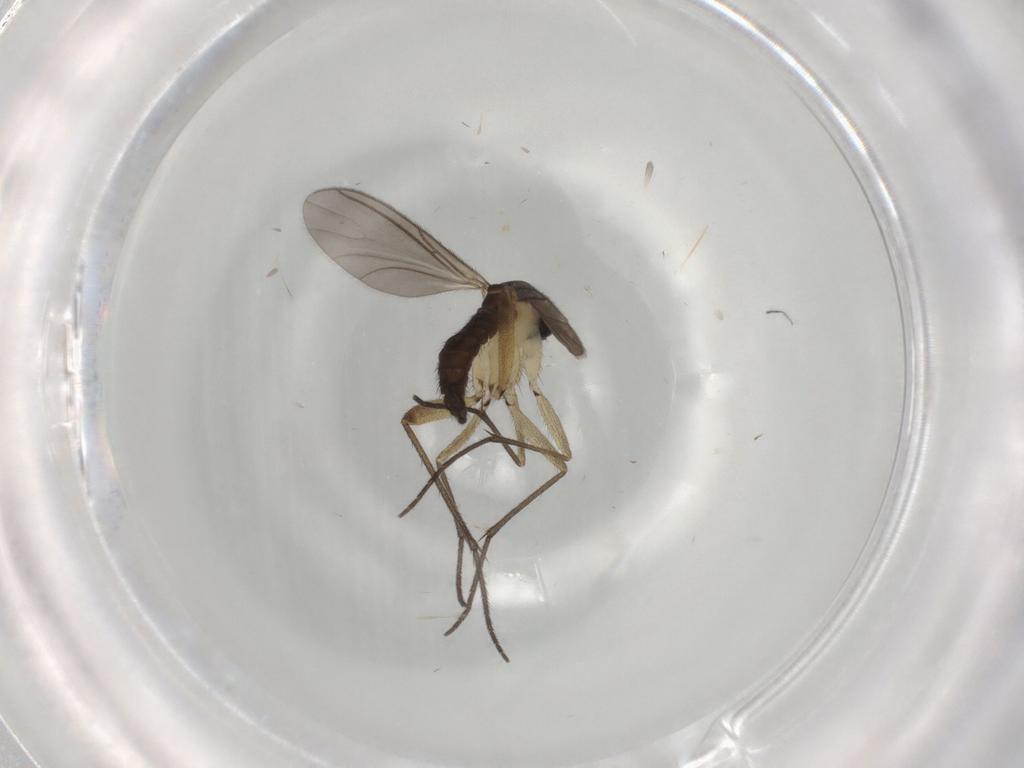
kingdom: Animalia
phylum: Arthropoda
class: Insecta
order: Diptera
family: Sciaridae
